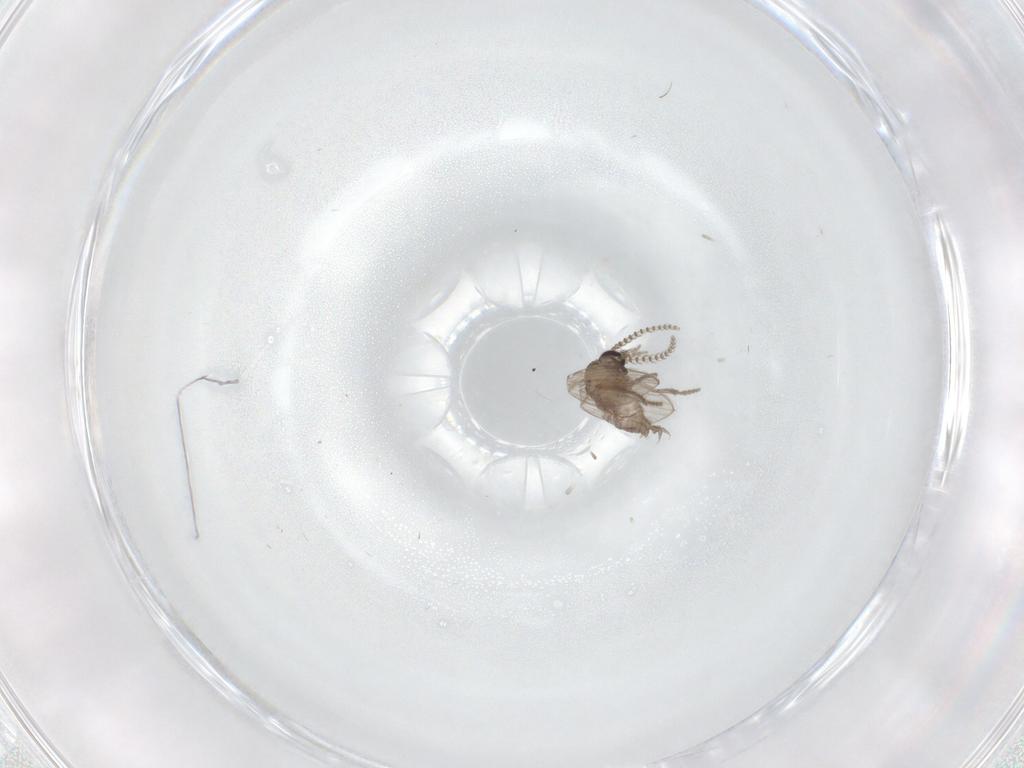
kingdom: Animalia
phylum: Arthropoda
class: Insecta
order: Diptera
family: Psychodidae
